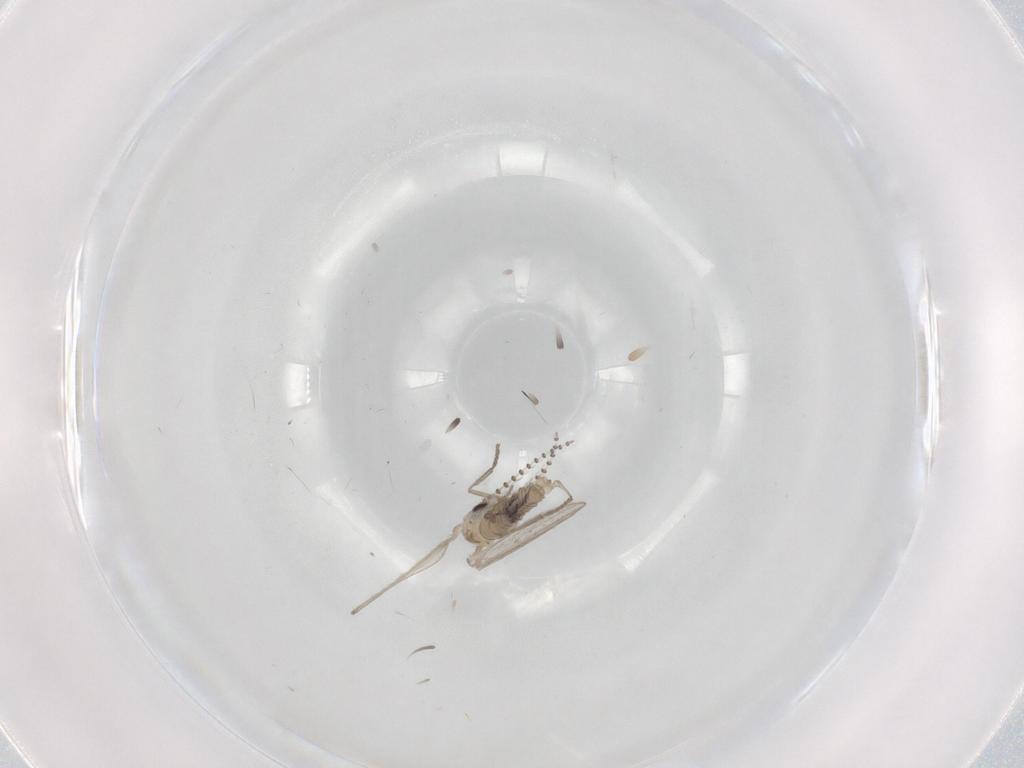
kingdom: Animalia
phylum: Arthropoda
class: Insecta
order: Diptera
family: Psychodidae
